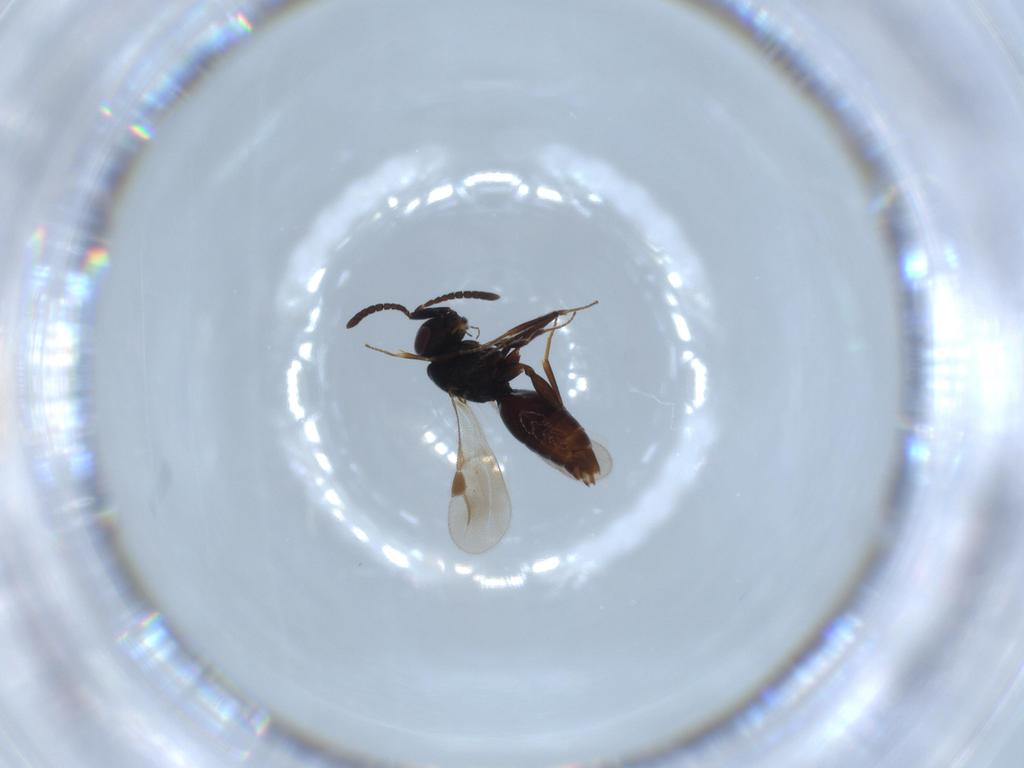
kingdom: Animalia
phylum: Arthropoda
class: Insecta
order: Hymenoptera
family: Megaspilidae
